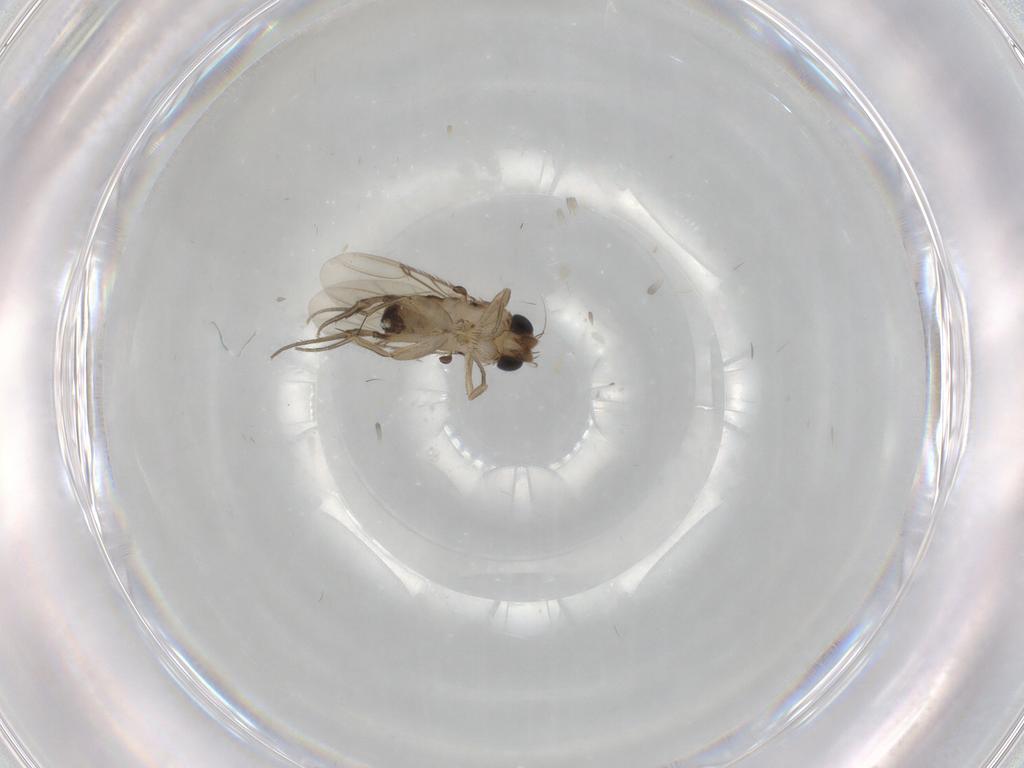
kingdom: Animalia
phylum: Arthropoda
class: Insecta
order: Diptera
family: Phoridae
